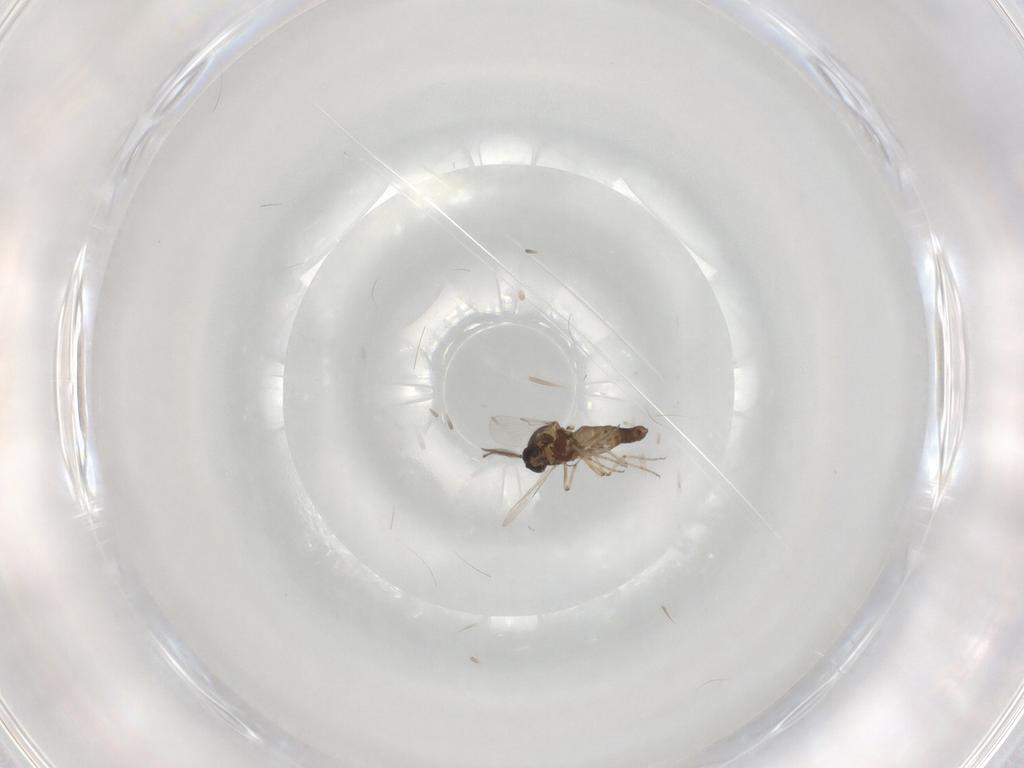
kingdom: Animalia
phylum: Arthropoda
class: Insecta
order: Diptera
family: Ceratopogonidae
